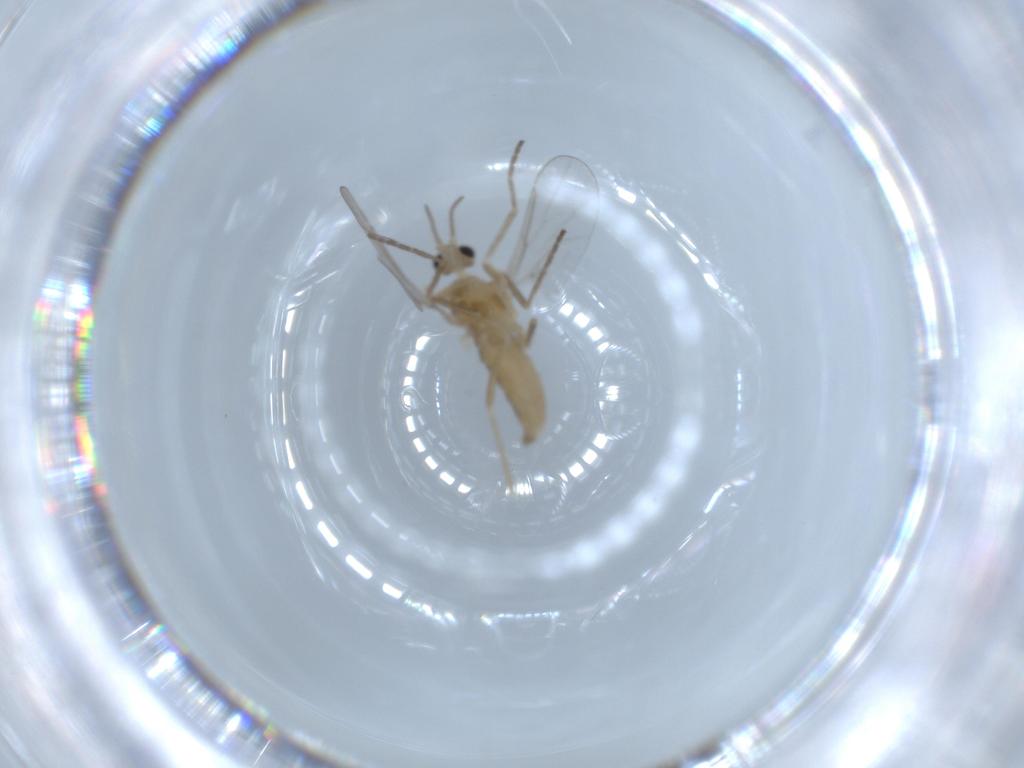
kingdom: Animalia
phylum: Arthropoda
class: Insecta
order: Diptera
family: Cecidomyiidae
